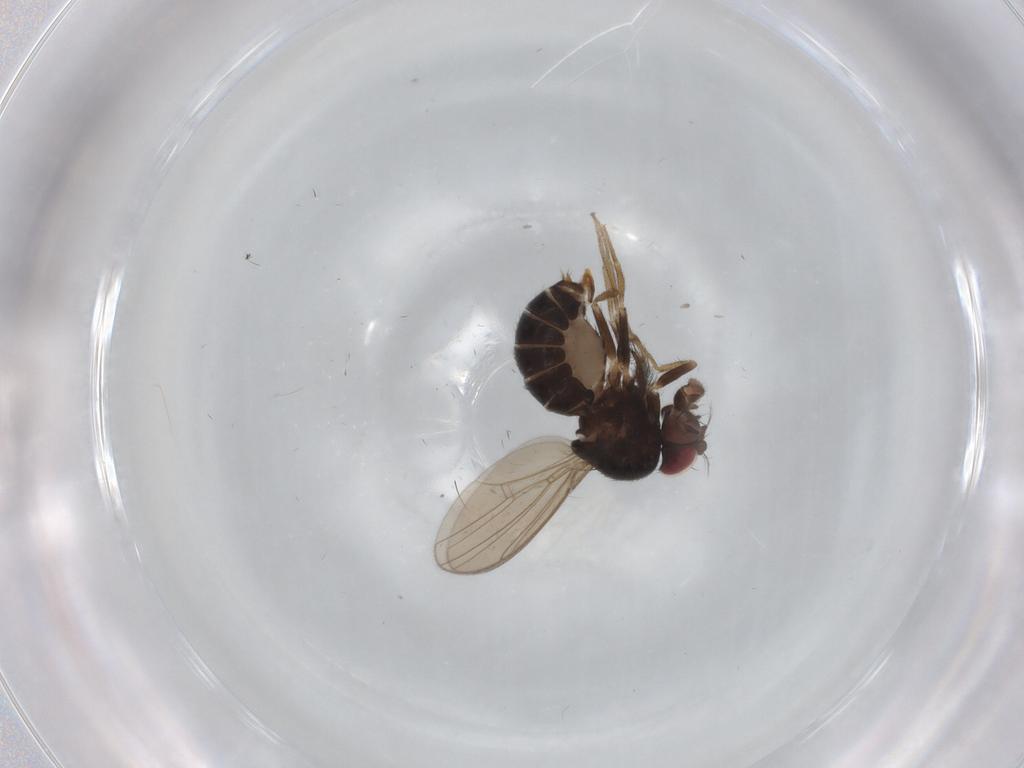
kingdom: Animalia
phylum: Arthropoda
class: Insecta
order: Diptera
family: Drosophilidae
